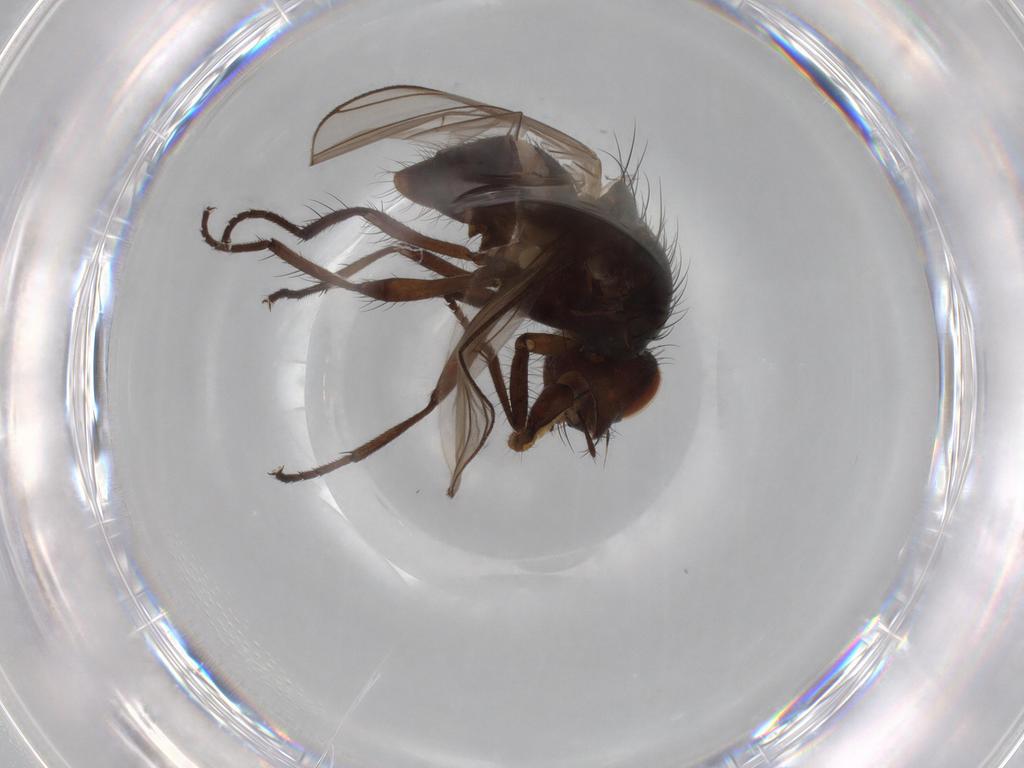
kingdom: Animalia
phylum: Arthropoda
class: Insecta
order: Diptera
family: Anthomyiidae
